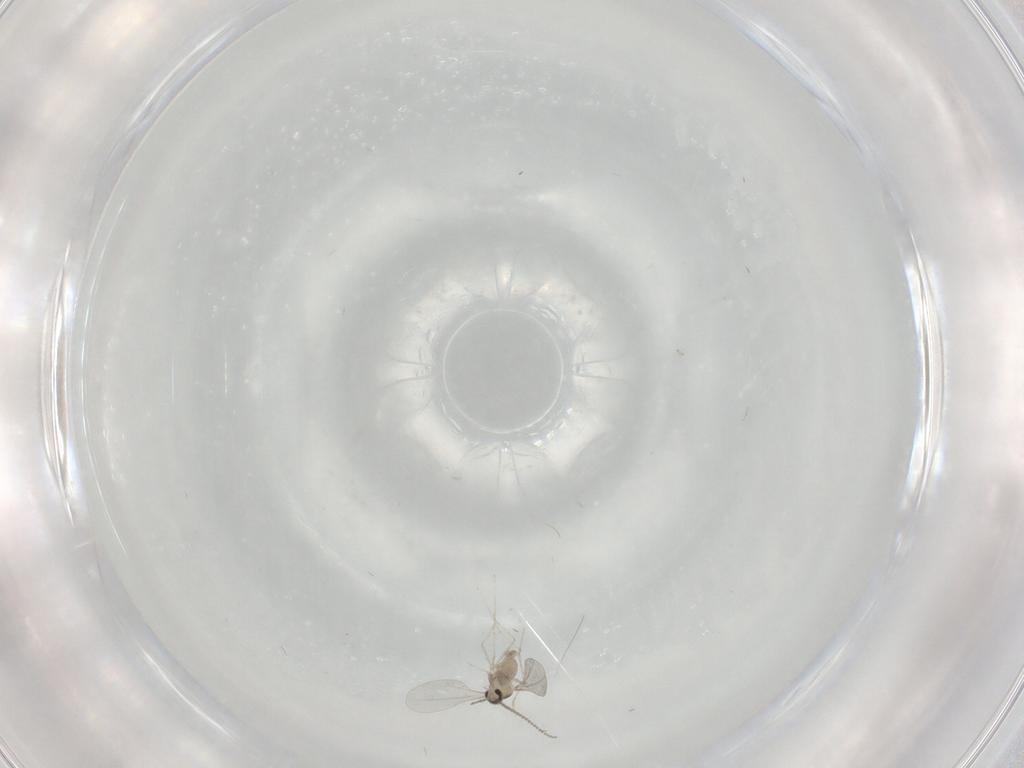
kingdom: Animalia
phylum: Arthropoda
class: Insecta
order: Diptera
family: Cecidomyiidae
